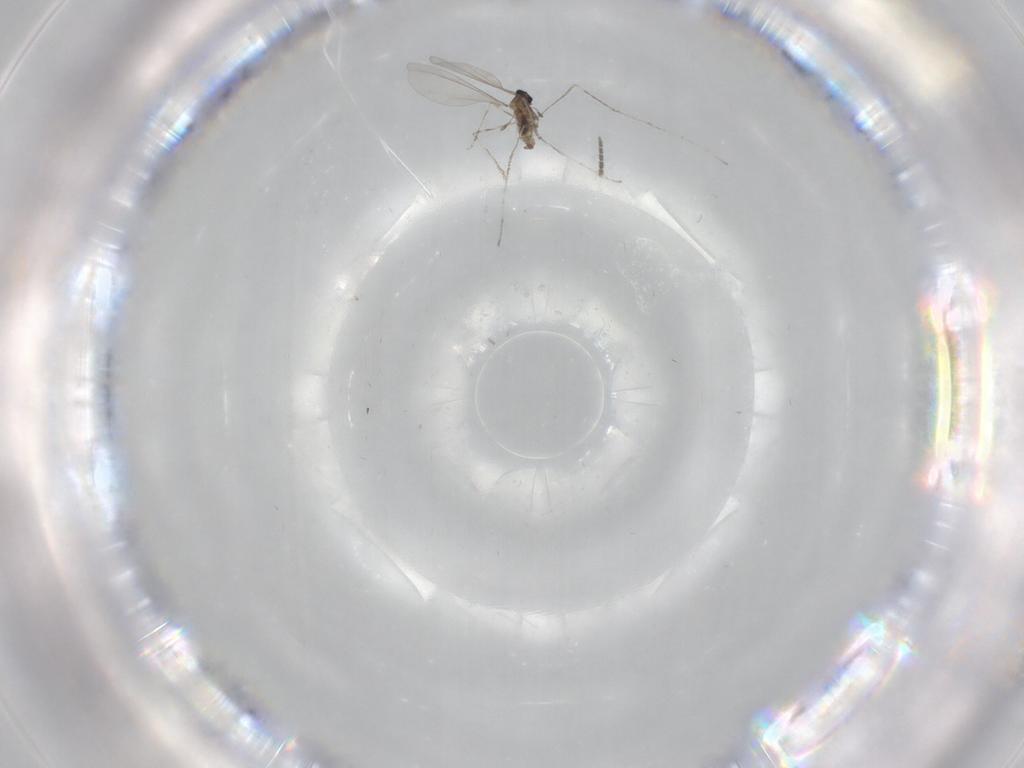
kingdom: Animalia
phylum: Arthropoda
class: Insecta
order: Diptera
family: Cecidomyiidae
